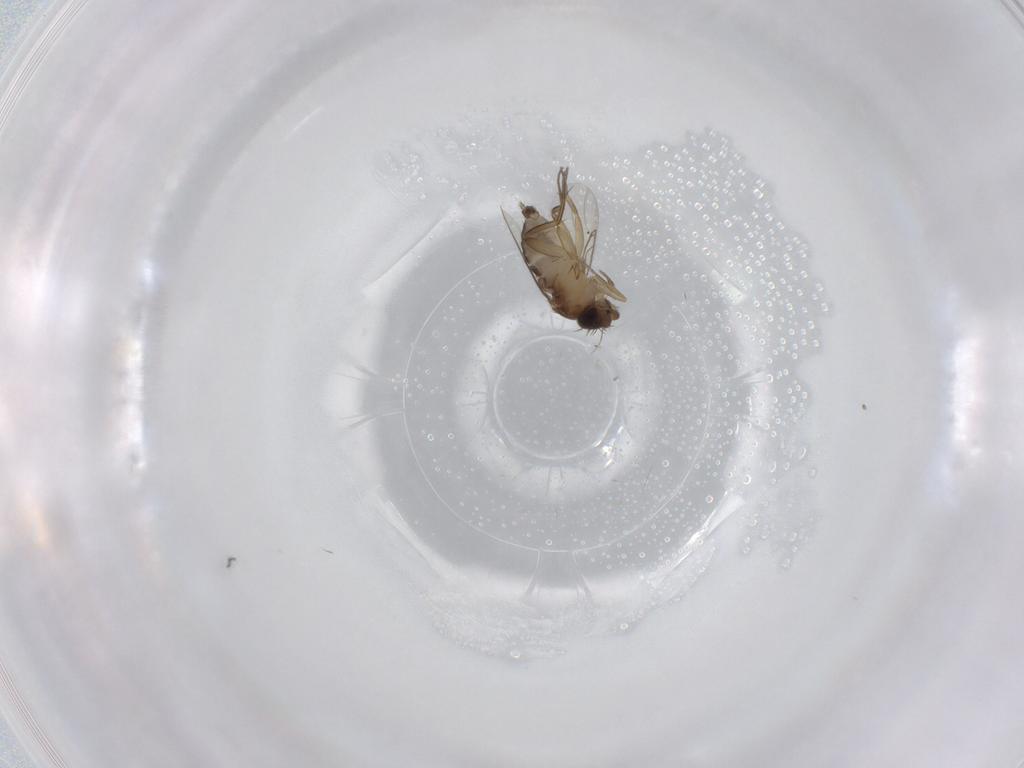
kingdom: Animalia
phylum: Arthropoda
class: Insecta
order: Diptera
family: Phoridae
